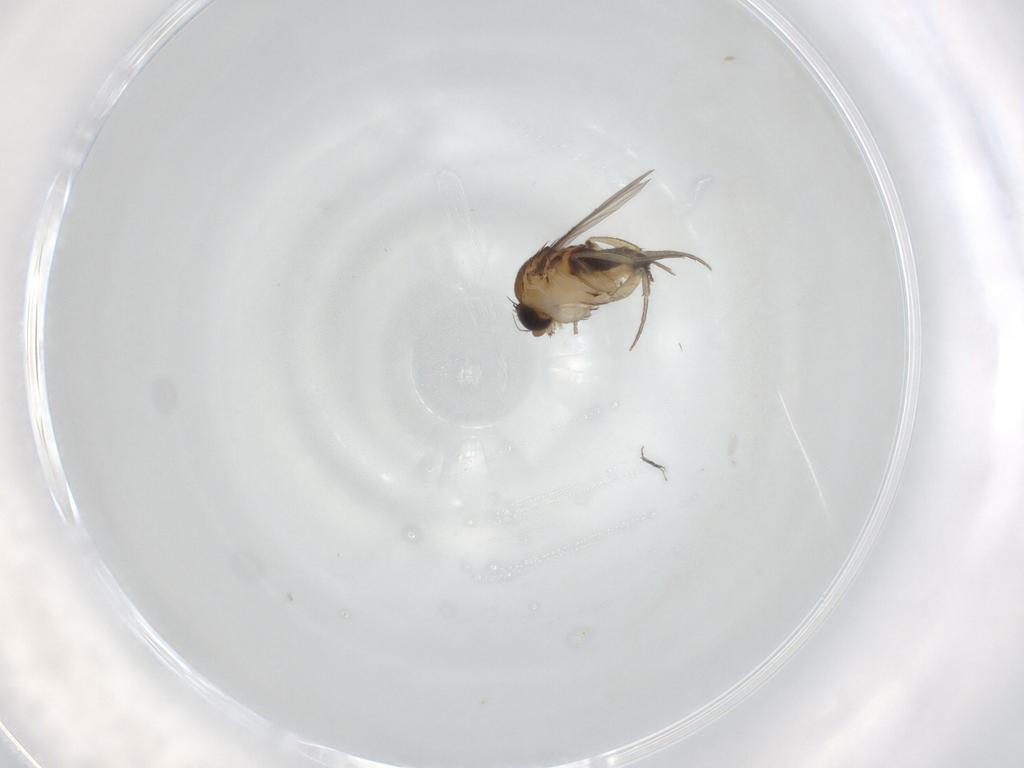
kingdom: Animalia
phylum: Arthropoda
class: Insecta
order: Diptera
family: Phoridae
